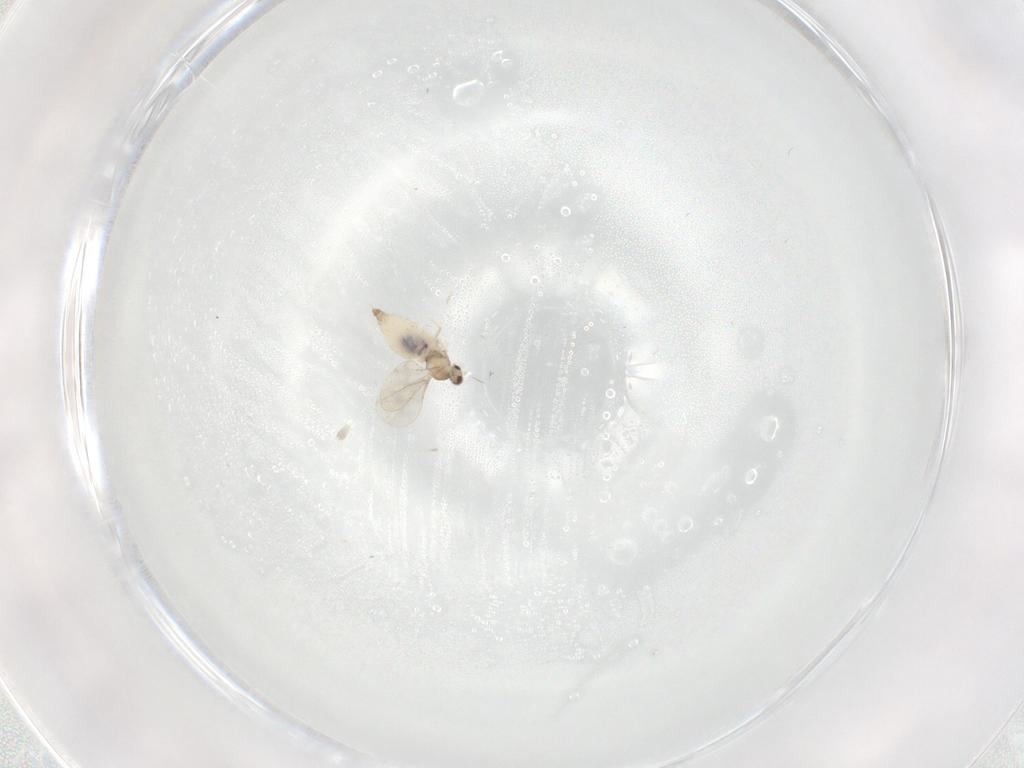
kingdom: Animalia
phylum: Arthropoda
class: Insecta
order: Diptera
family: Cecidomyiidae
